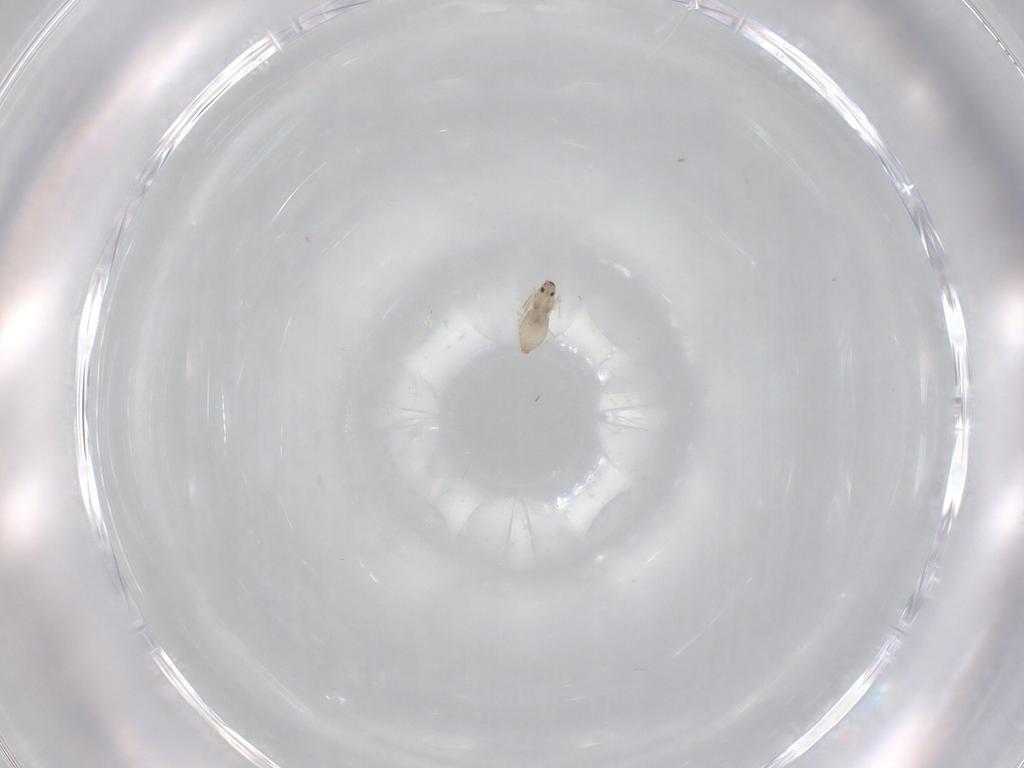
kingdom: Animalia
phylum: Arthropoda
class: Insecta
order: Diptera
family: Cecidomyiidae
